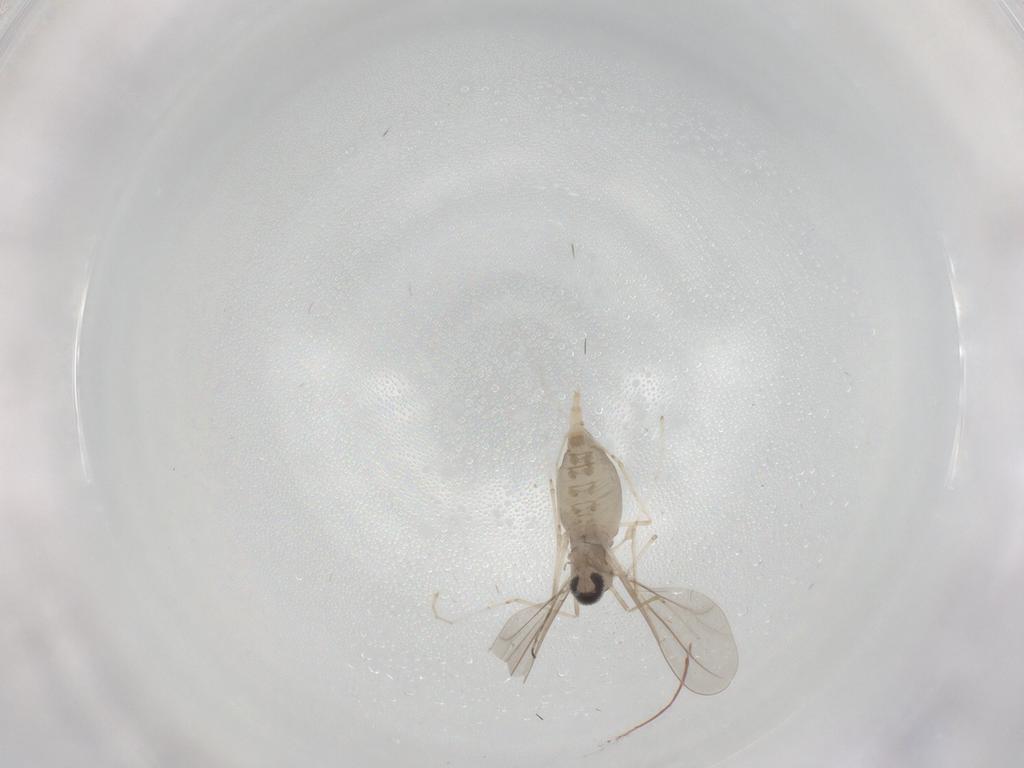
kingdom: Animalia
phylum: Arthropoda
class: Insecta
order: Diptera
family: Cecidomyiidae
